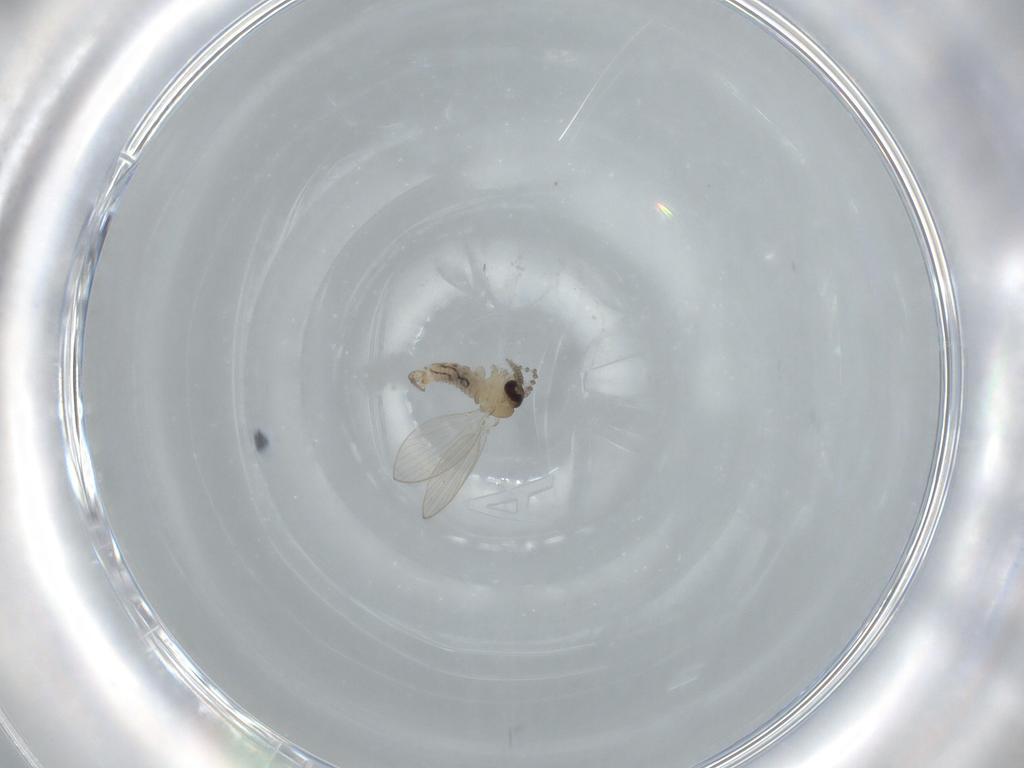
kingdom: Animalia
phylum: Arthropoda
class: Insecta
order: Diptera
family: Psychodidae
